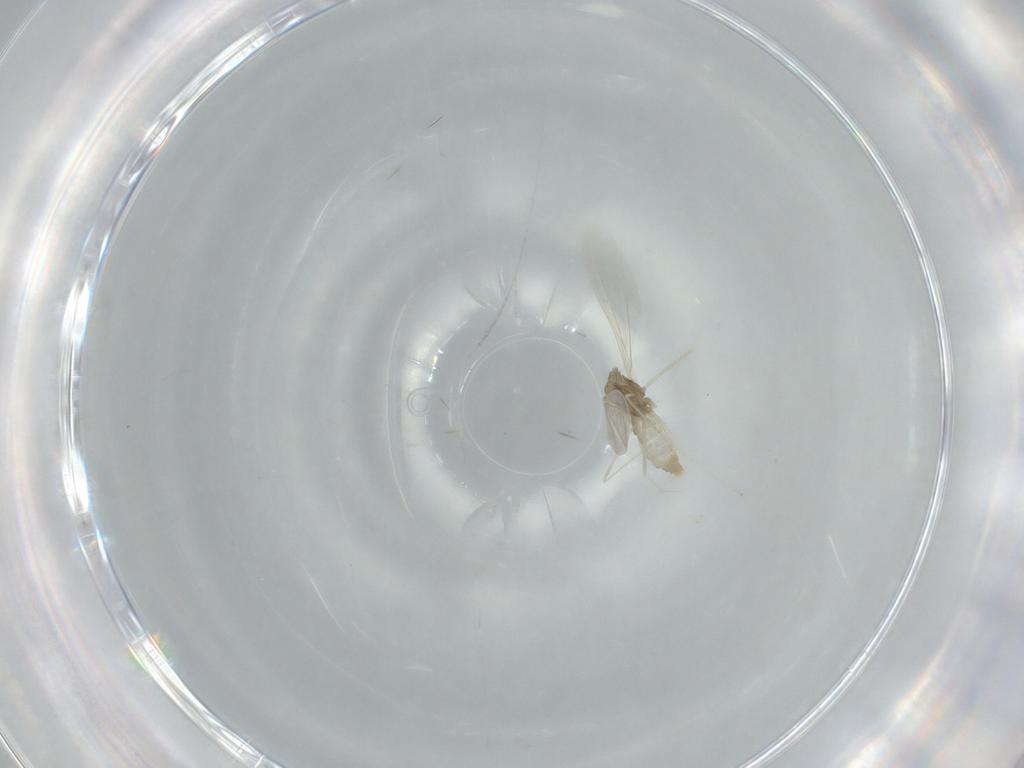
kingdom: Animalia
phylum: Arthropoda
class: Insecta
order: Diptera
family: Cecidomyiidae
